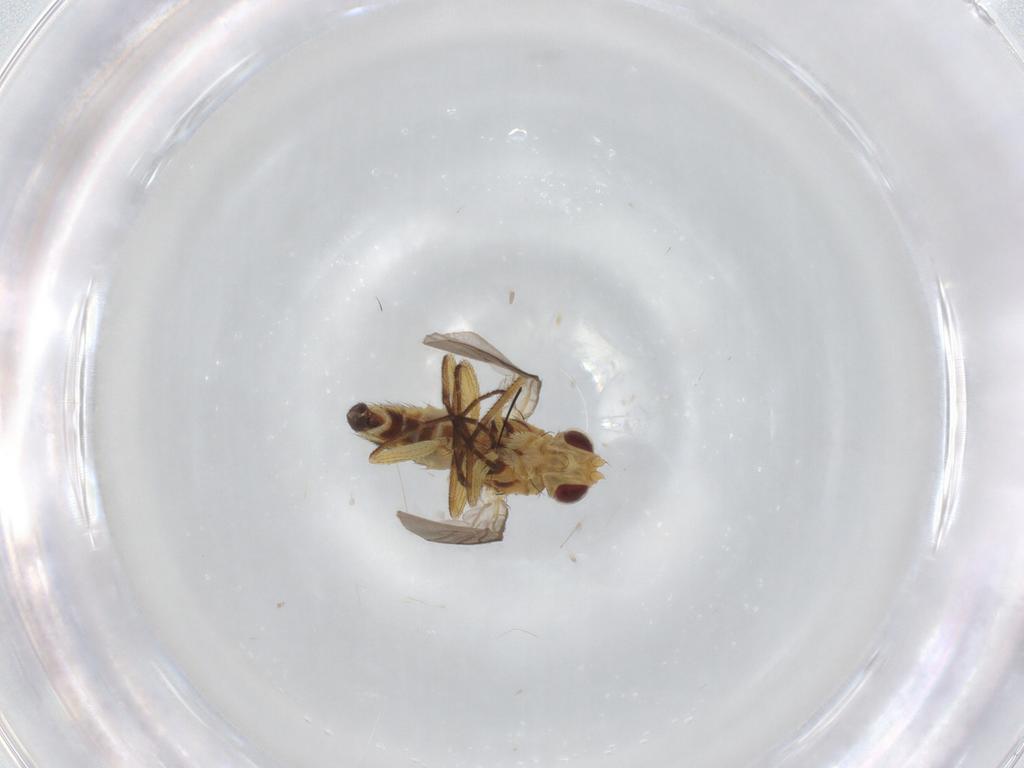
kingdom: Animalia
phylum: Arthropoda
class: Insecta
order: Diptera
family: Agromyzidae
